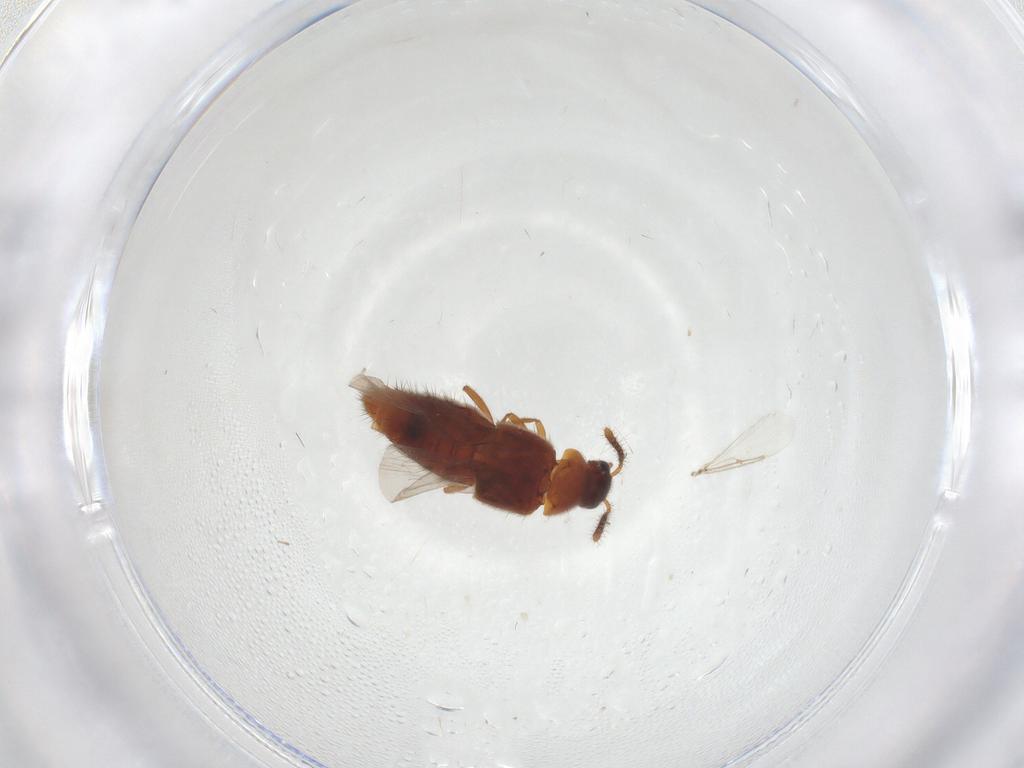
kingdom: Animalia
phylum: Arthropoda
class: Insecta
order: Coleoptera
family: Staphylinidae
